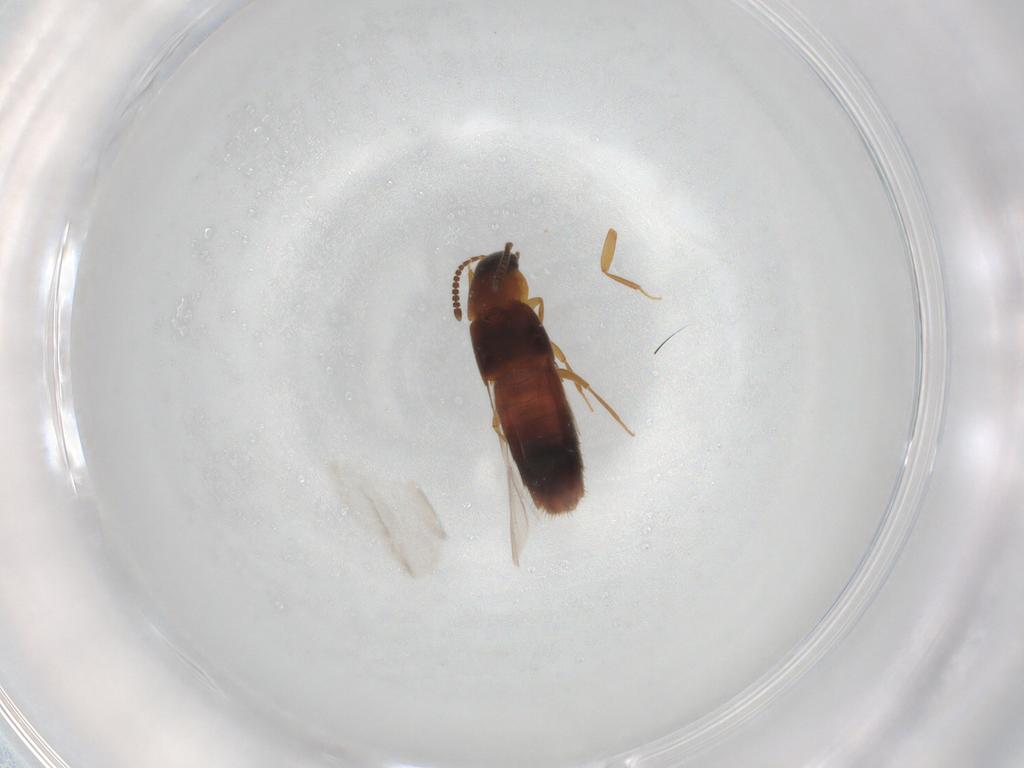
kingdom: Animalia
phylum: Arthropoda
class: Insecta
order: Coleoptera
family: Staphylinidae
